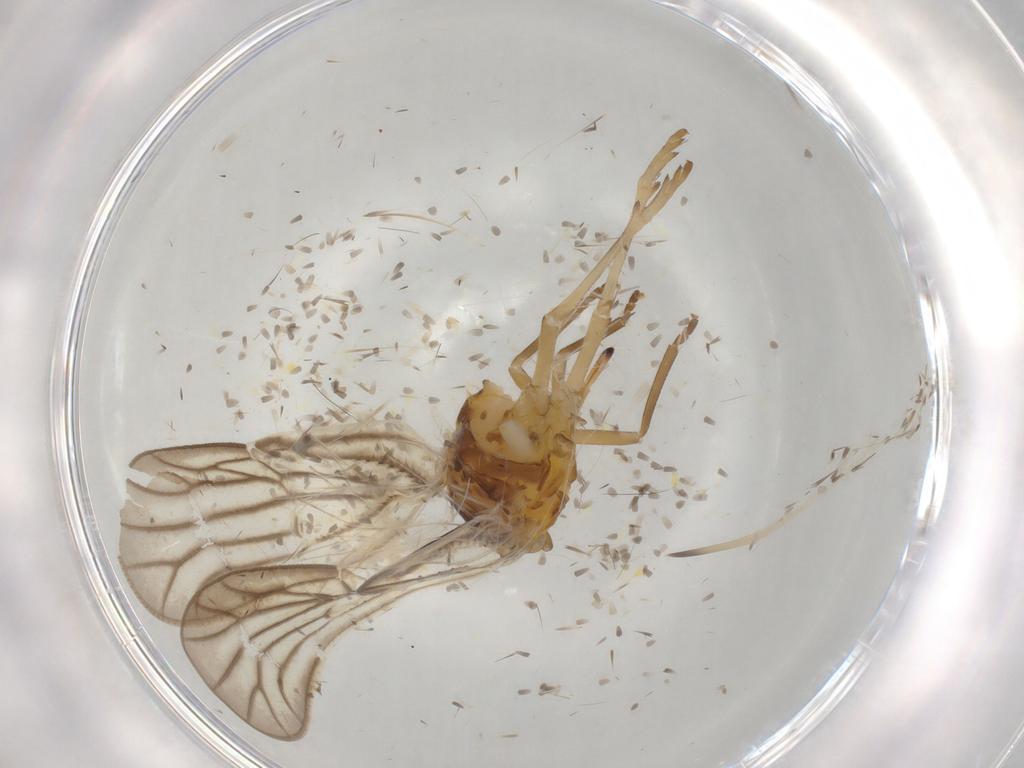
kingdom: Animalia
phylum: Arthropoda
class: Insecta
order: Hemiptera
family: Meenoplidae
